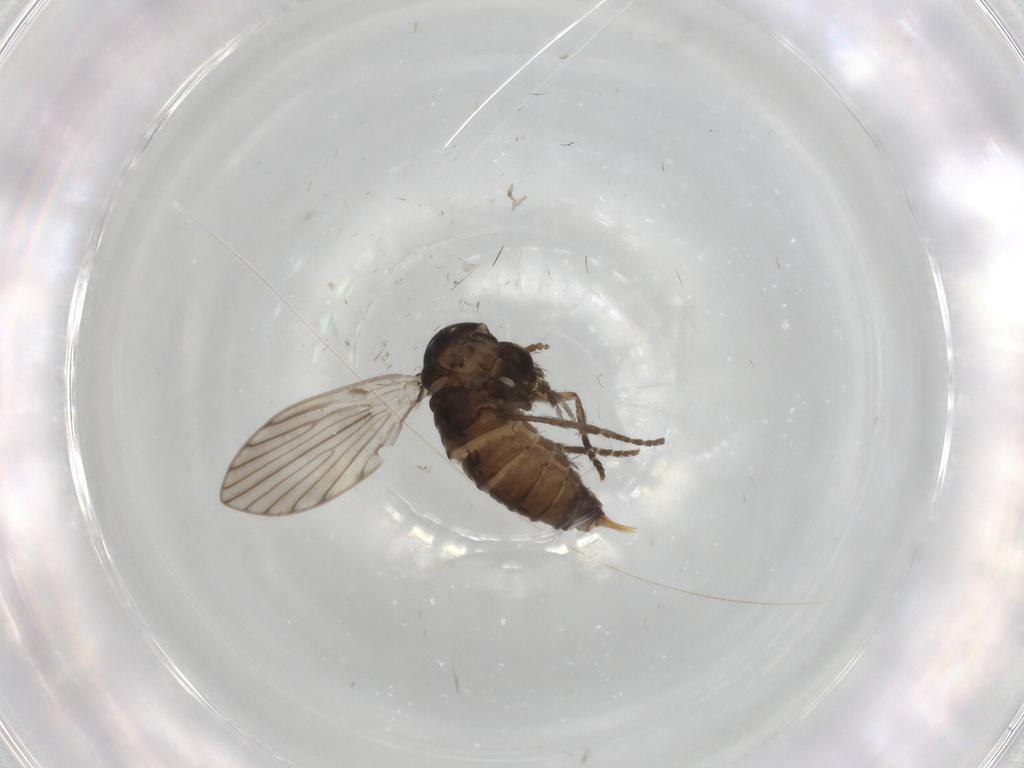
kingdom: Animalia
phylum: Arthropoda
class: Insecta
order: Diptera
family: Psychodidae
